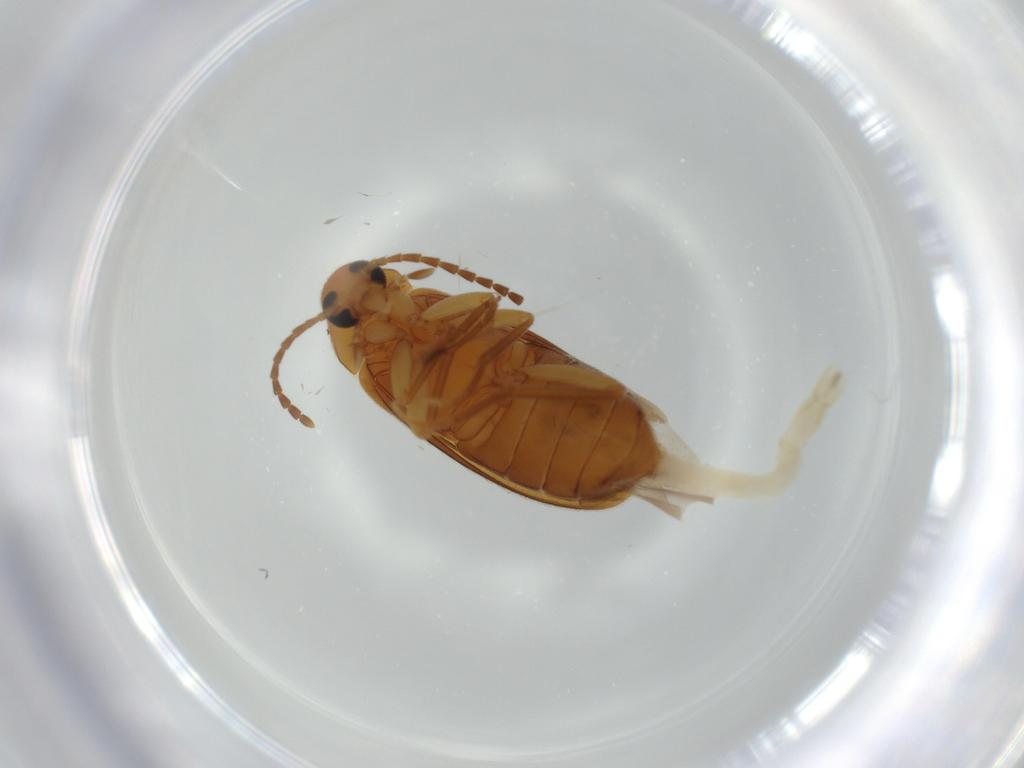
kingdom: Animalia
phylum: Arthropoda
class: Insecta
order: Coleoptera
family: Scraptiidae
